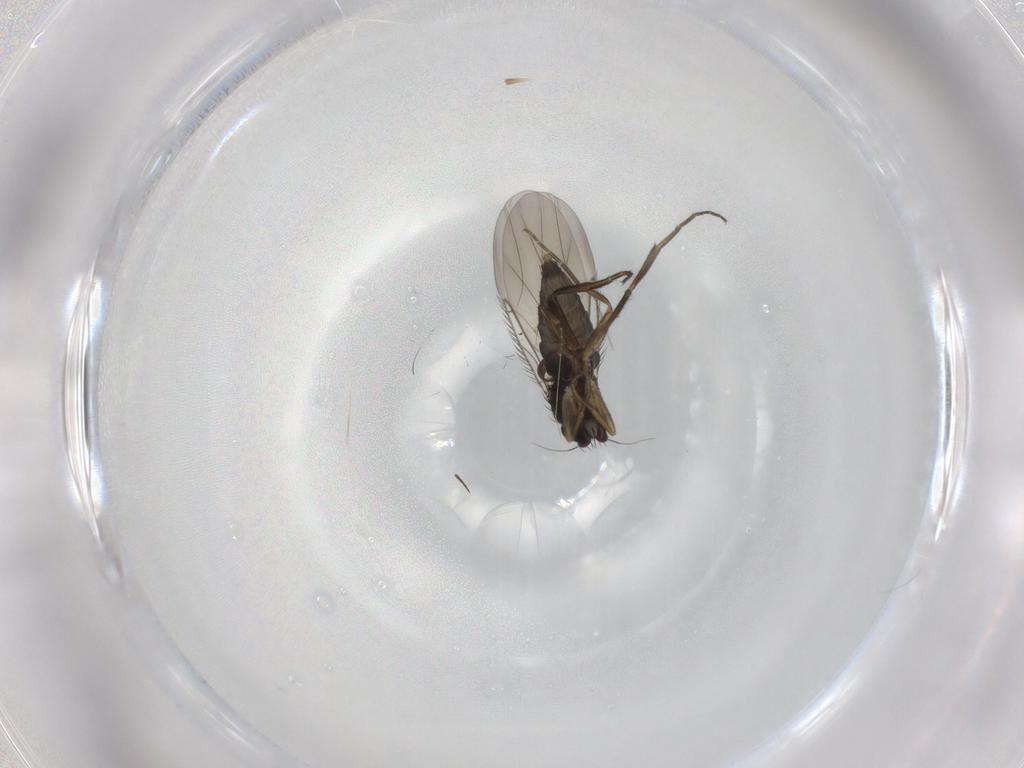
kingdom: Animalia
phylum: Arthropoda
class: Insecta
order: Diptera
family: Phoridae
